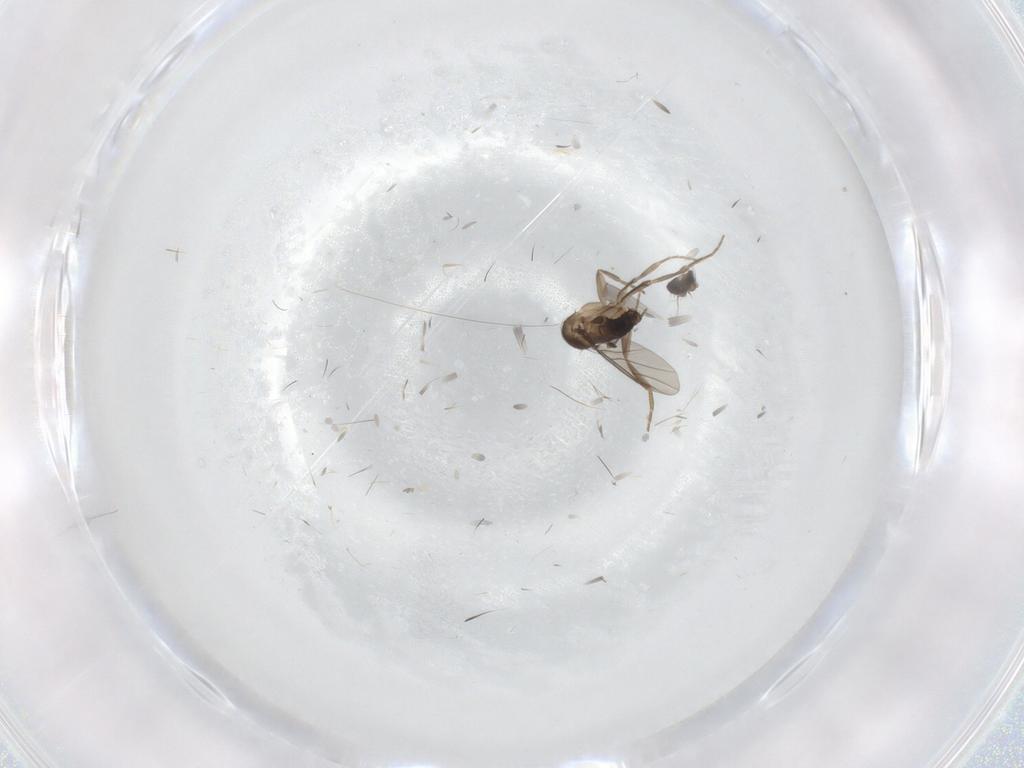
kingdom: Animalia
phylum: Arthropoda
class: Insecta
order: Diptera
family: Phoridae
